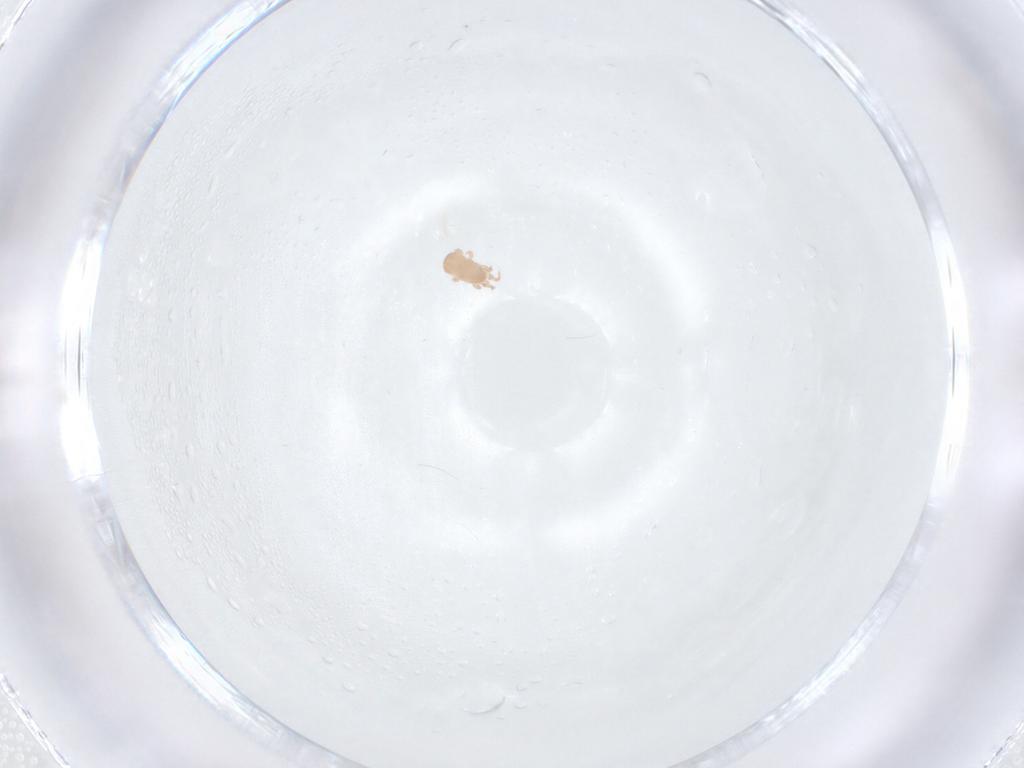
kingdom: Animalia
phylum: Arthropoda
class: Arachnida
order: Mesostigmata
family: Digamasellidae
